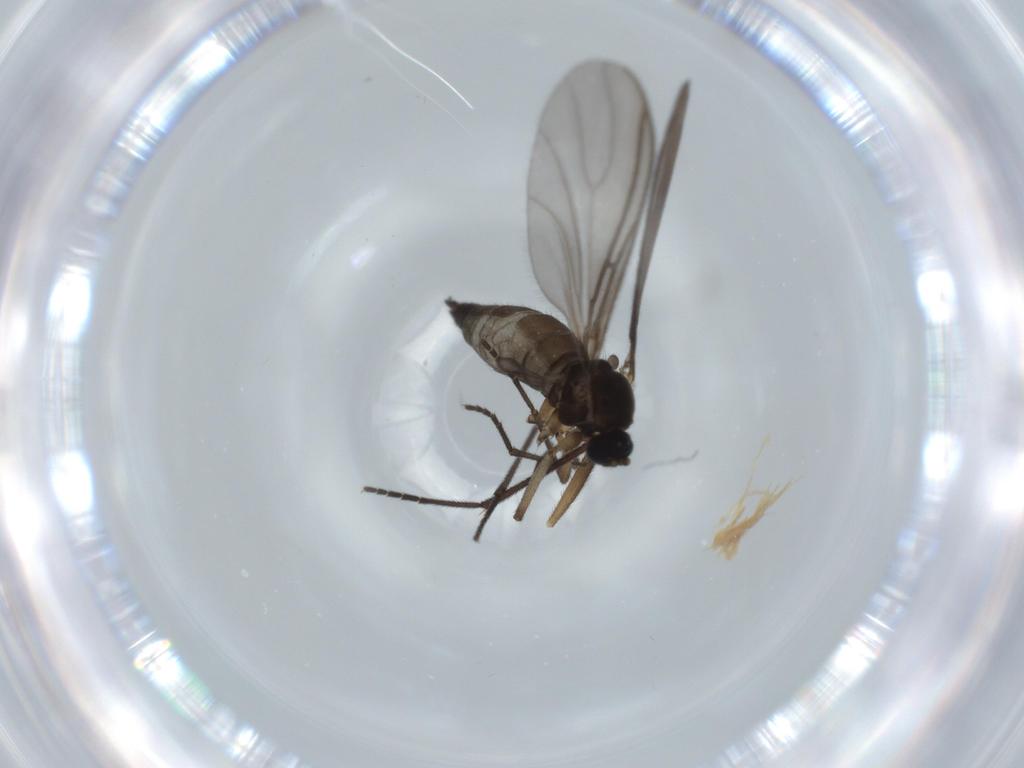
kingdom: Animalia
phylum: Arthropoda
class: Insecta
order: Diptera
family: Sciaridae
